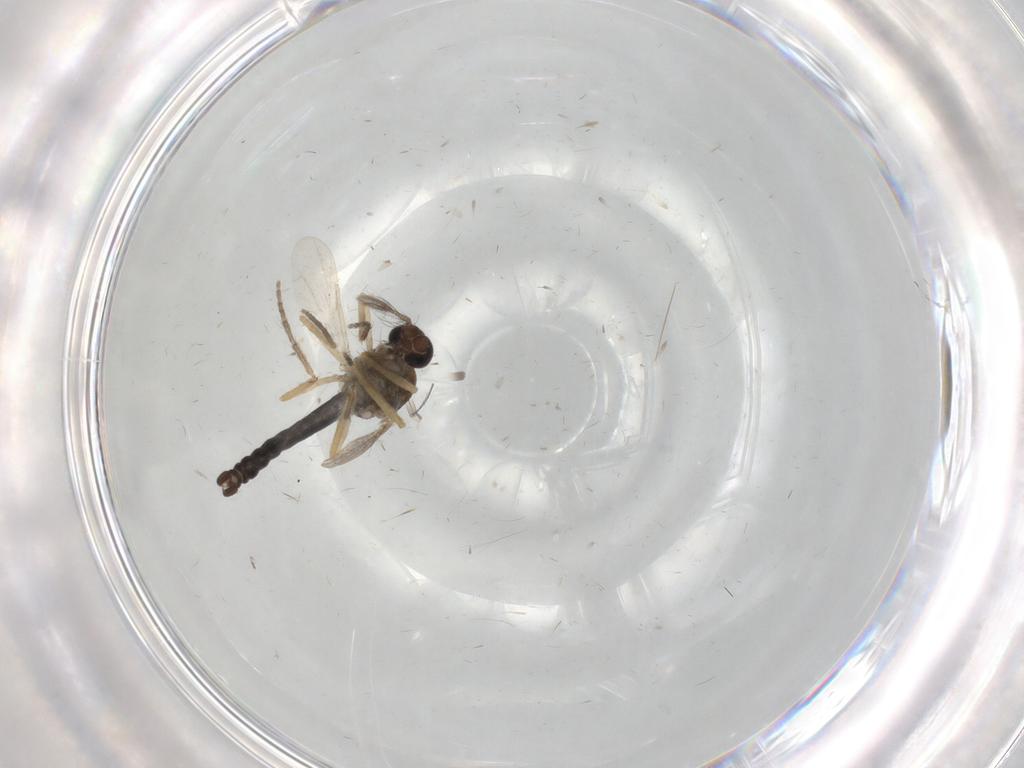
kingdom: Animalia
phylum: Arthropoda
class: Insecta
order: Diptera
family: Ceratopogonidae
